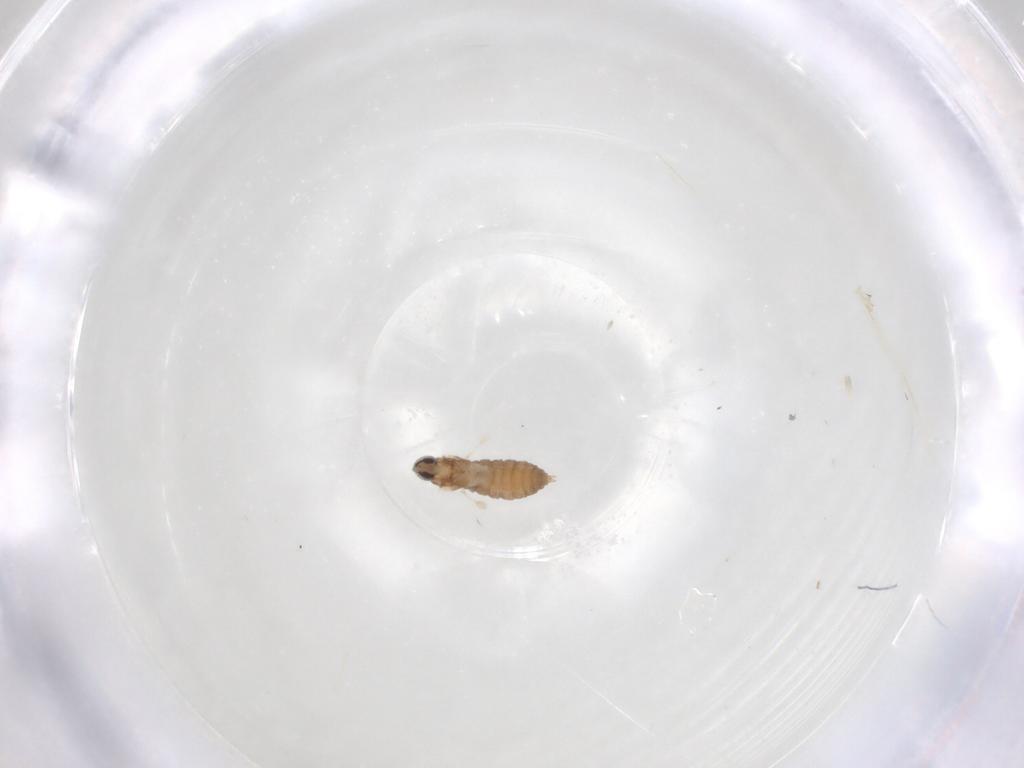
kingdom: Animalia
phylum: Arthropoda
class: Insecta
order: Diptera
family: Cecidomyiidae
